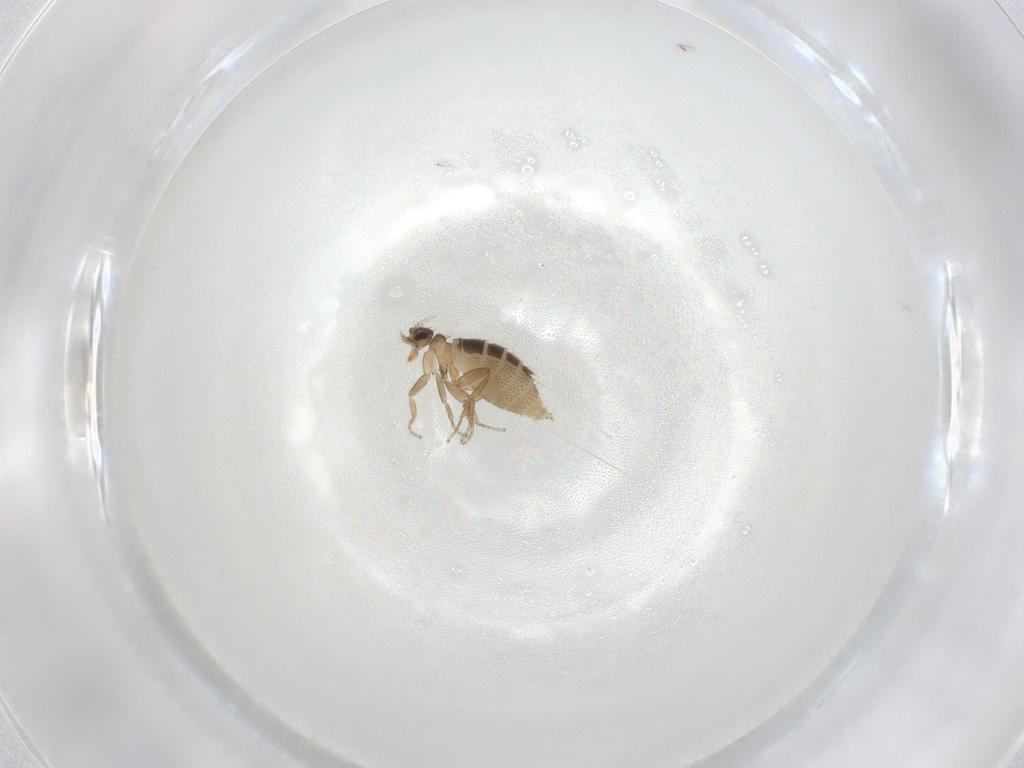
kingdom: Animalia
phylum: Arthropoda
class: Insecta
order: Diptera
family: Phoridae
